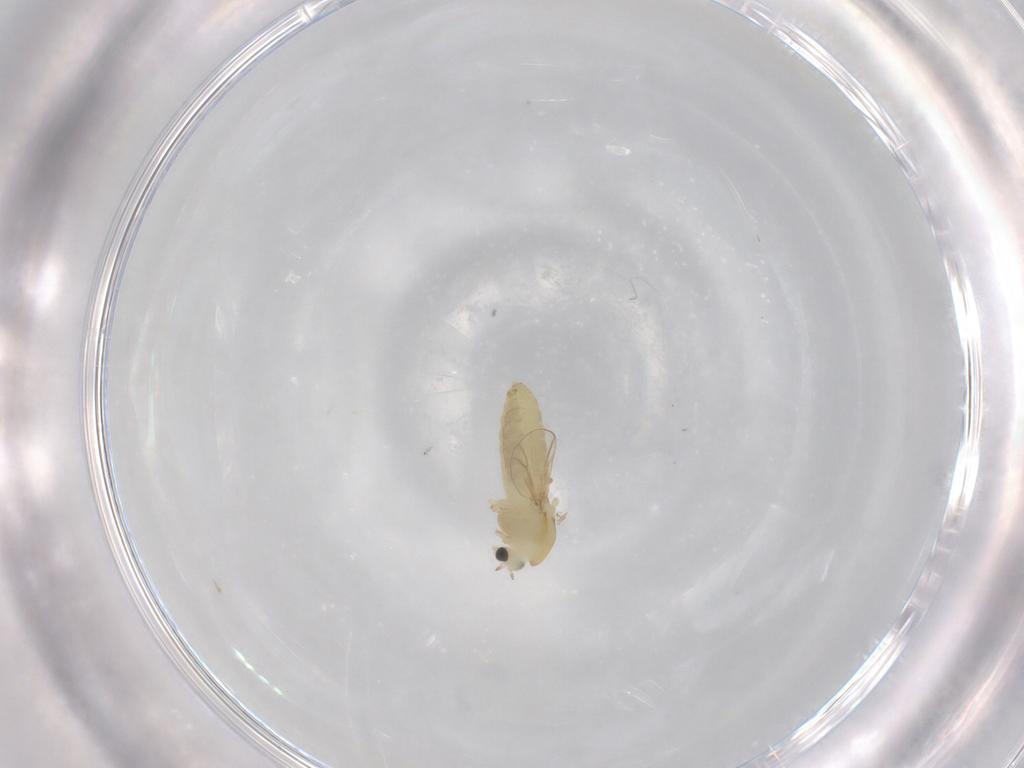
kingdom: Animalia
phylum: Arthropoda
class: Insecta
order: Diptera
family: Chironomidae
